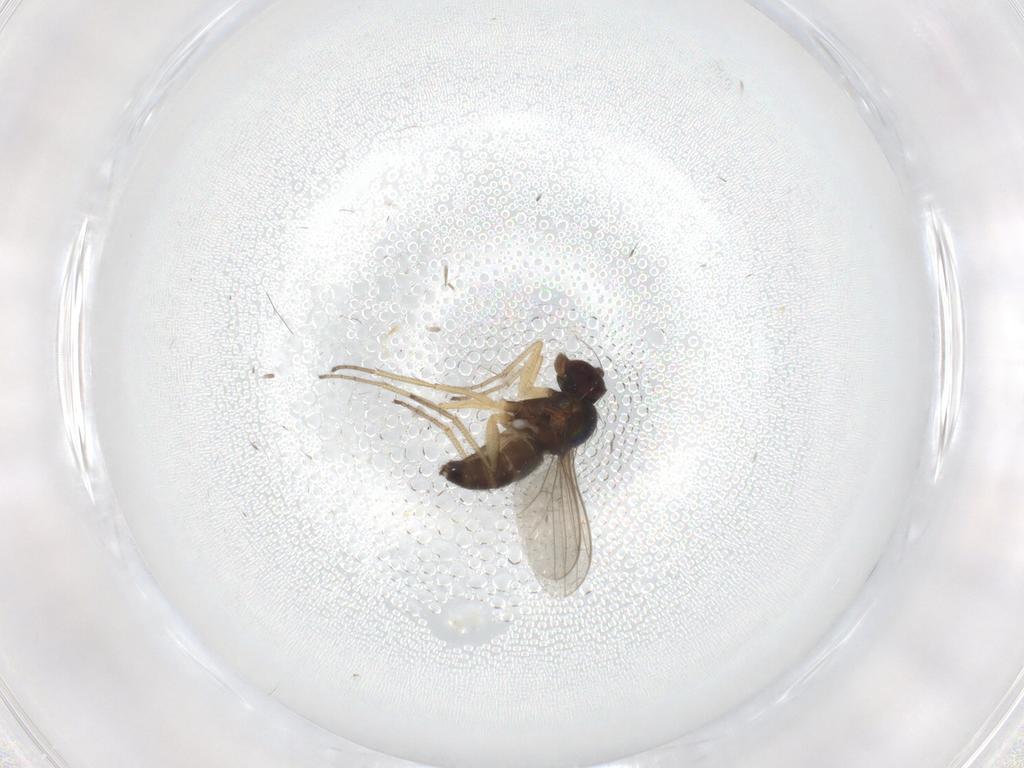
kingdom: Animalia
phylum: Arthropoda
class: Insecta
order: Diptera
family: Dolichopodidae
